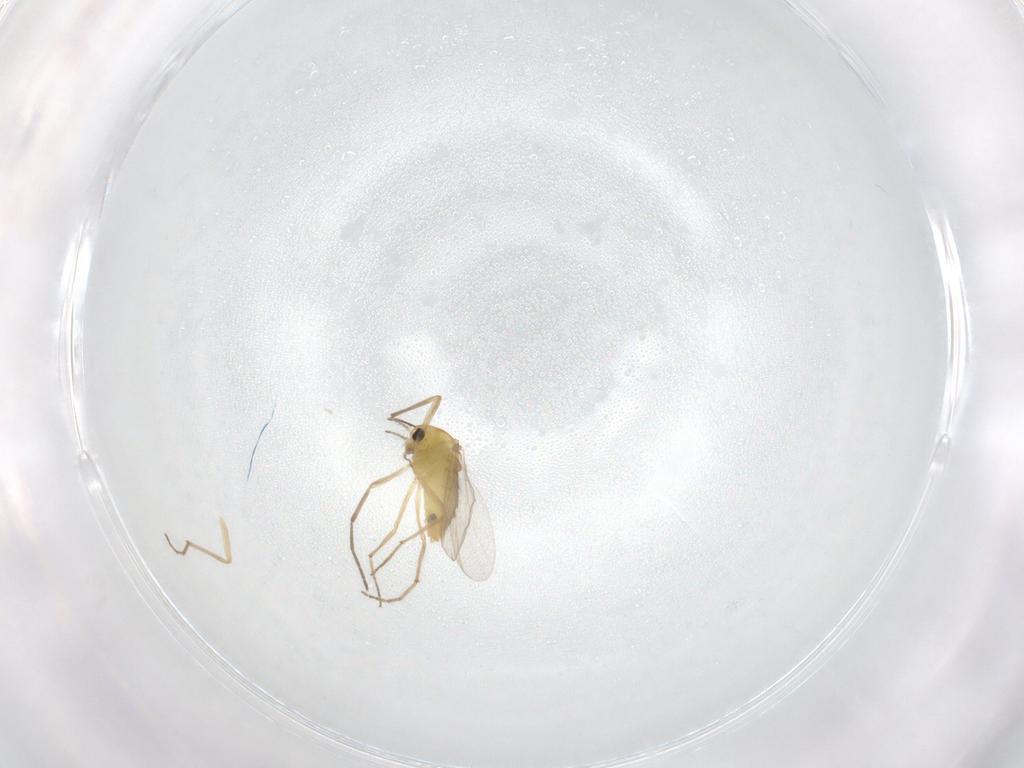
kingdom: Animalia
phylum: Arthropoda
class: Insecta
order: Diptera
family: Chironomidae
